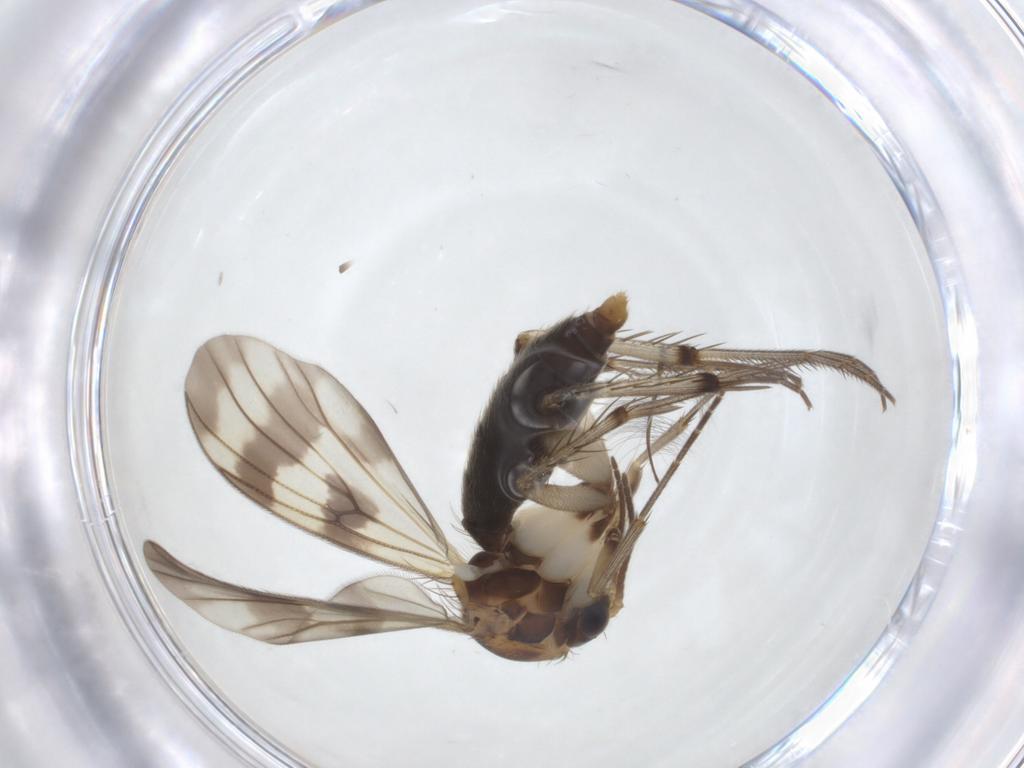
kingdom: Animalia
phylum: Arthropoda
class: Insecta
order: Diptera
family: Mycetophilidae
